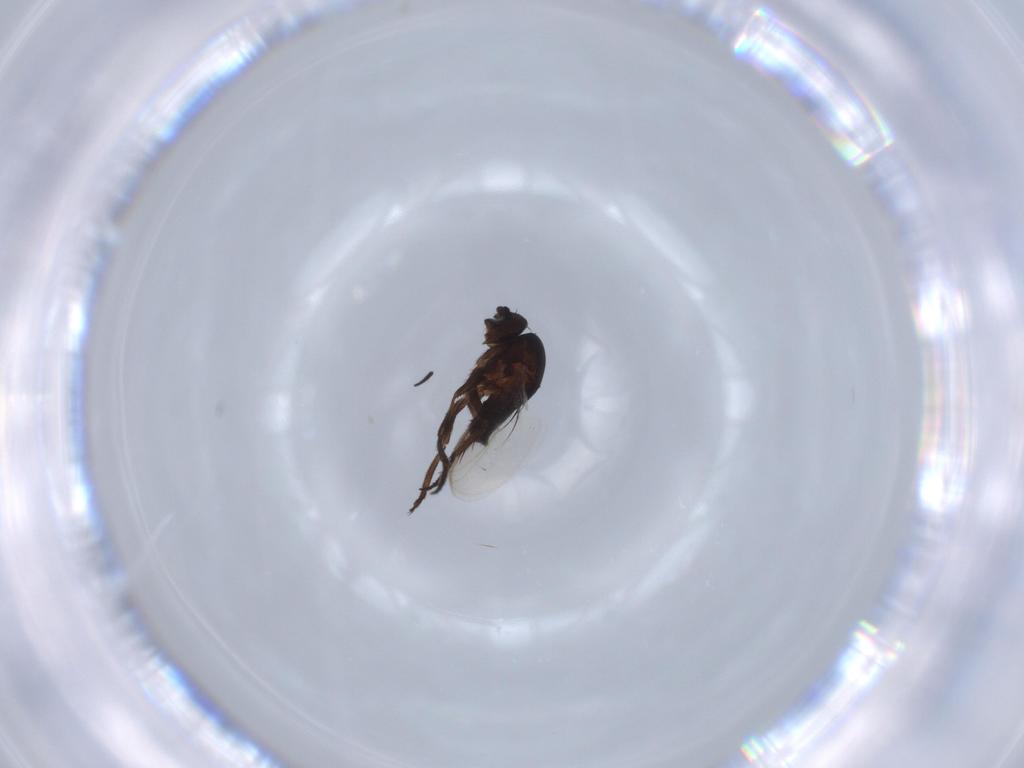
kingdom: Animalia
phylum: Arthropoda
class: Insecta
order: Diptera
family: Sphaeroceridae
